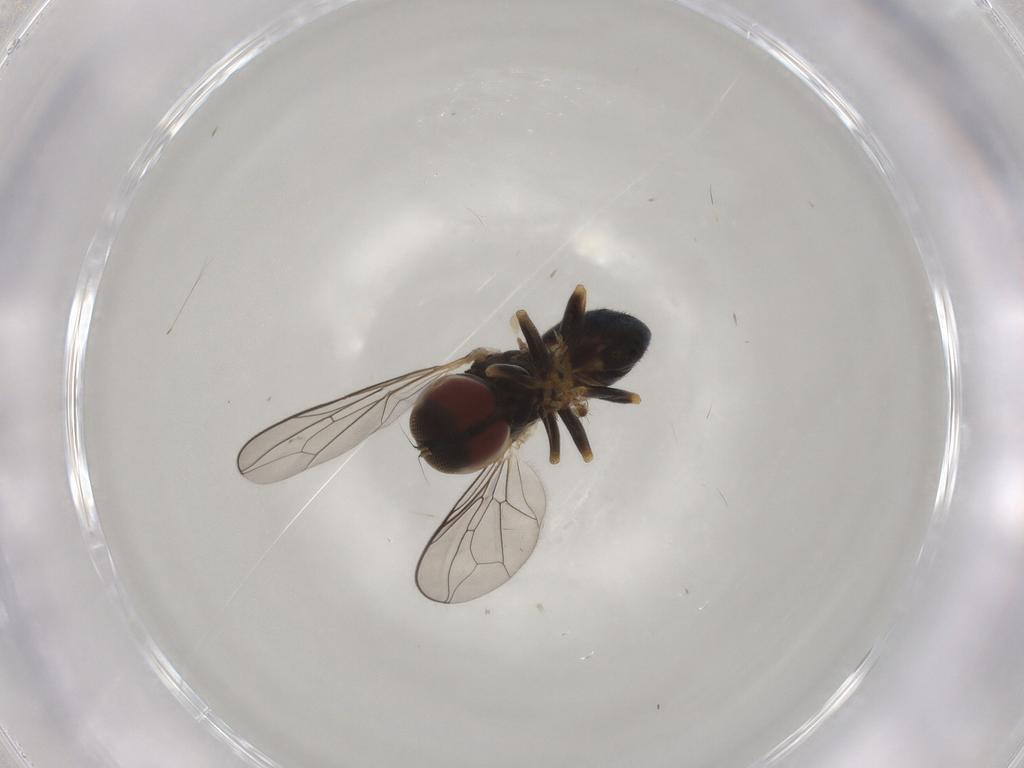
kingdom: Animalia
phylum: Arthropoda
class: Insecta
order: Diptera
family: Pipunculidae
